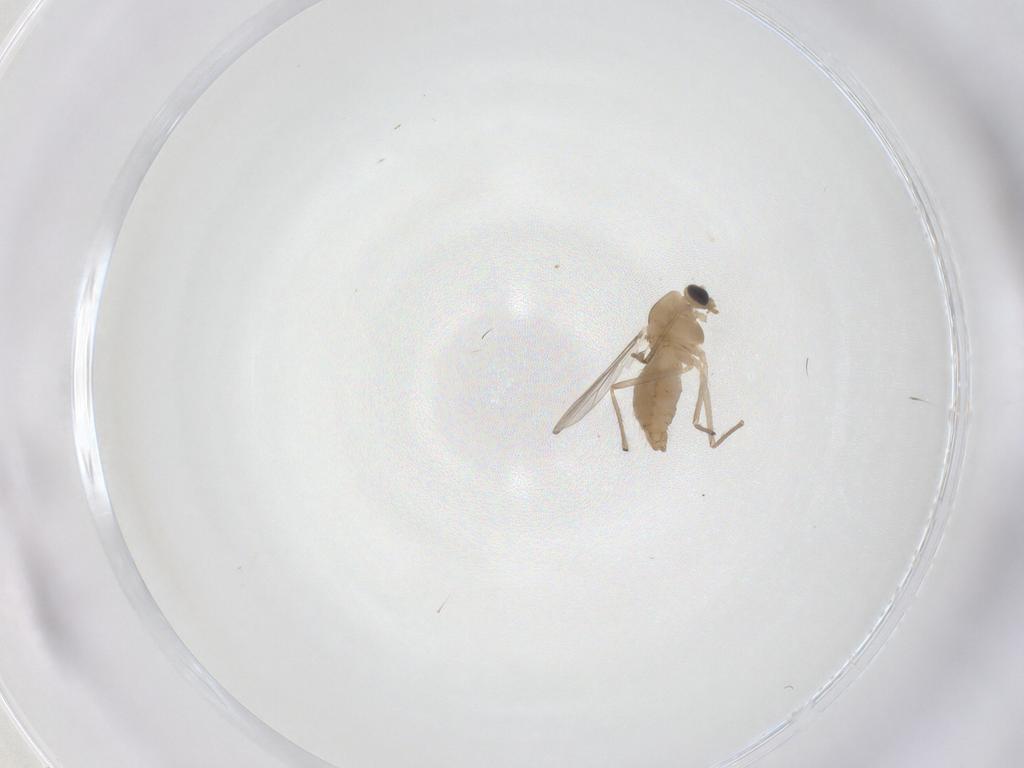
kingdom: Animalia
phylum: Arthropoda
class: Insecta
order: Diptera
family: Chironomidae
